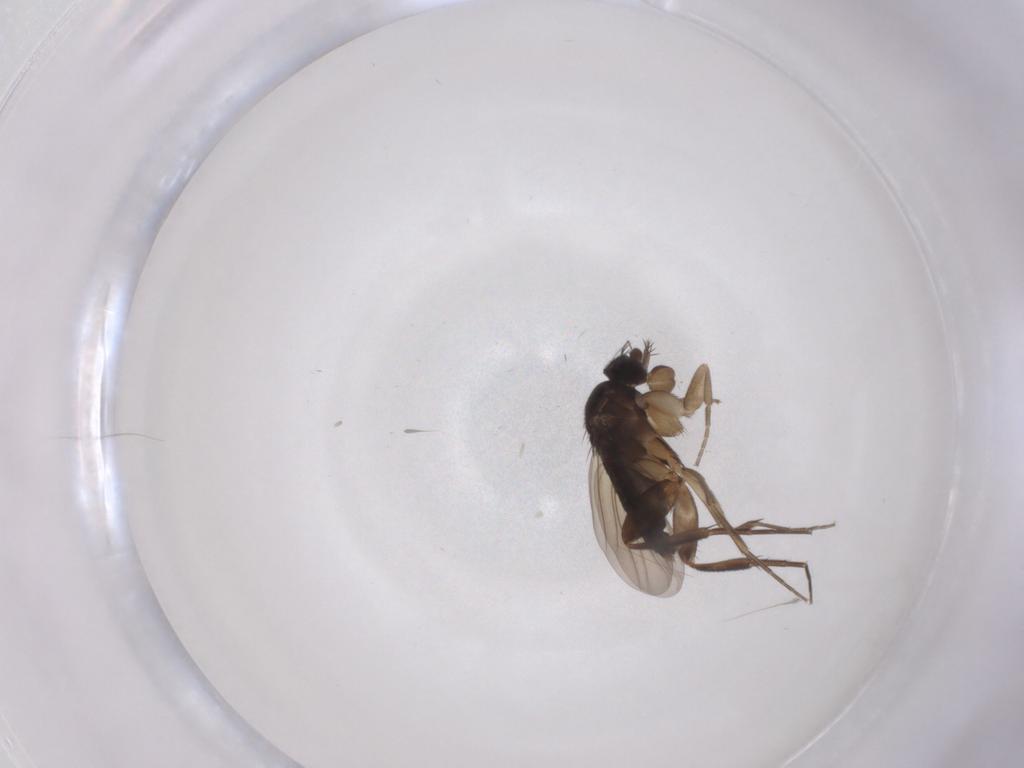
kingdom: Animalia
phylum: Arthropoda
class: Insecta
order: Diptera
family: Phoridae
